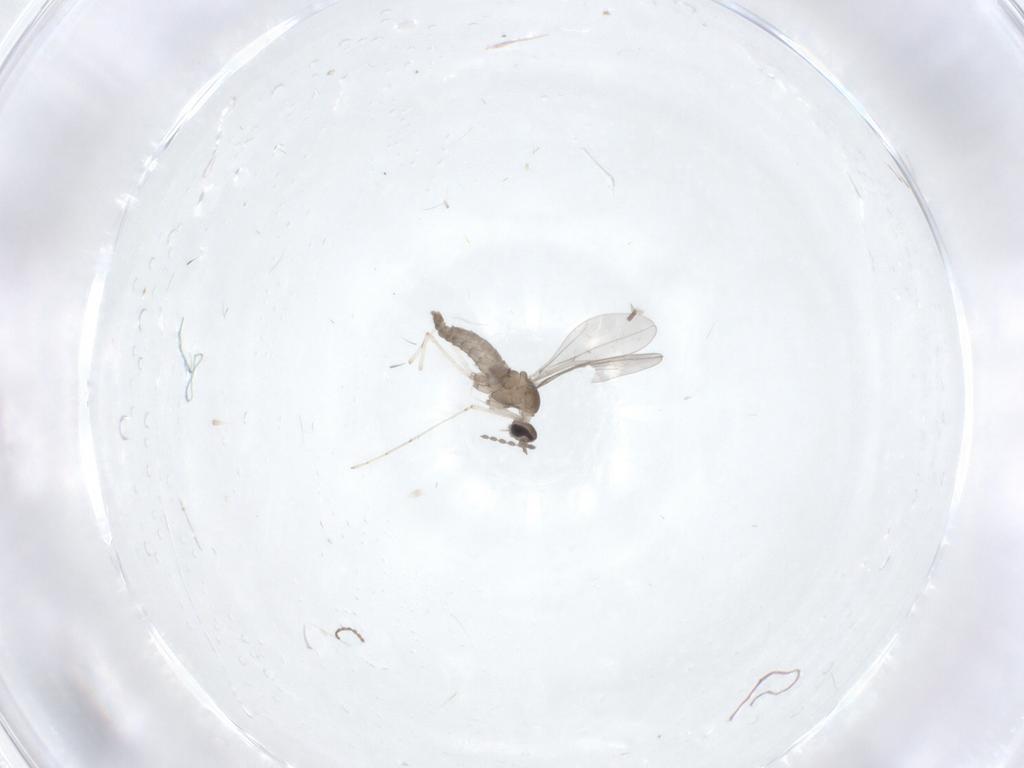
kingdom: Animalia
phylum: Arthropoda
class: Insecta
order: Diptera
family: Cecidomyiidae
